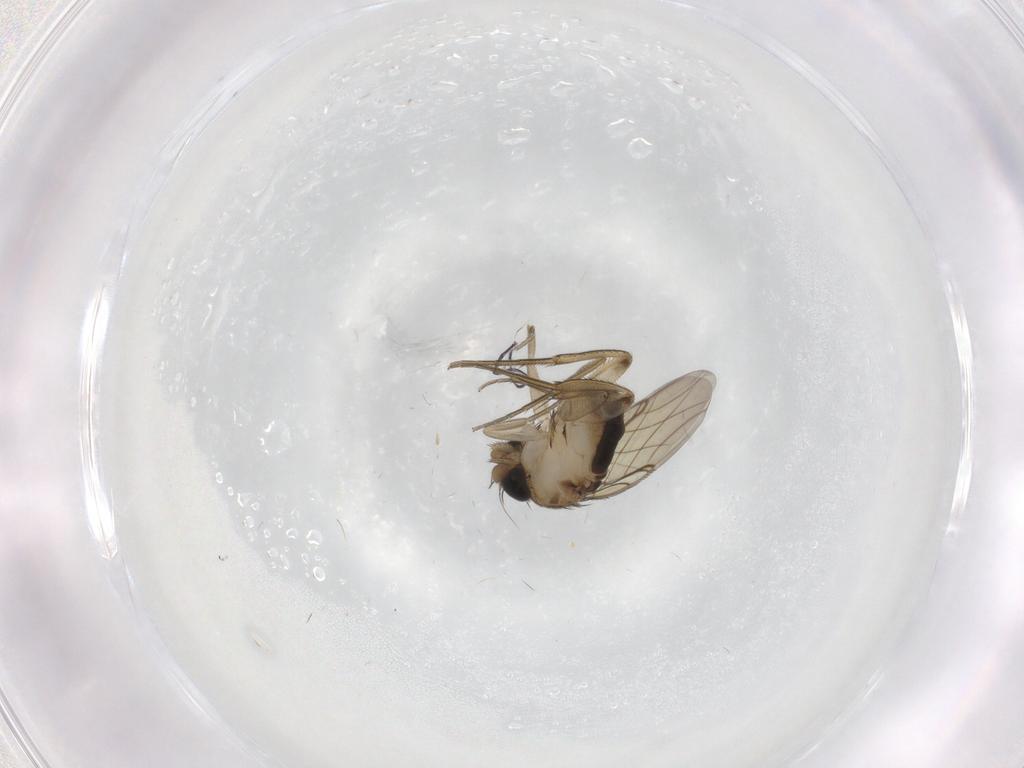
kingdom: Animalia
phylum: Arthropoda
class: Insecta
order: Diptera
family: Phoridae
